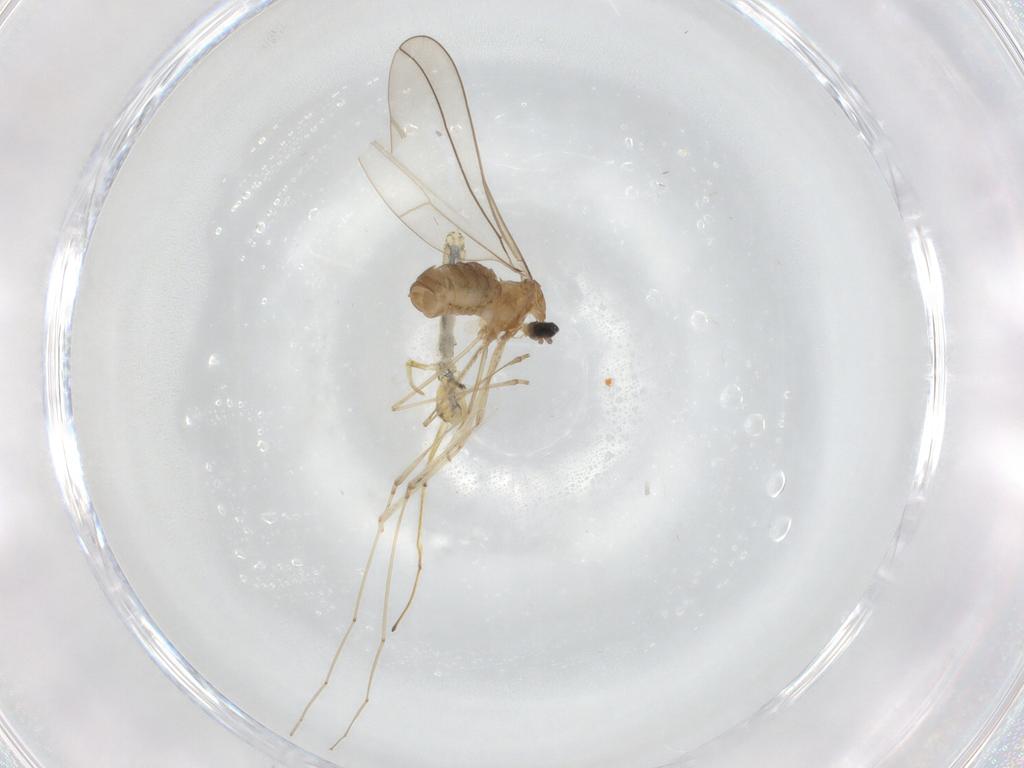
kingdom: Animalia
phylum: Arthropoda
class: Insecta
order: Diptera
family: Cecidomyiidae
